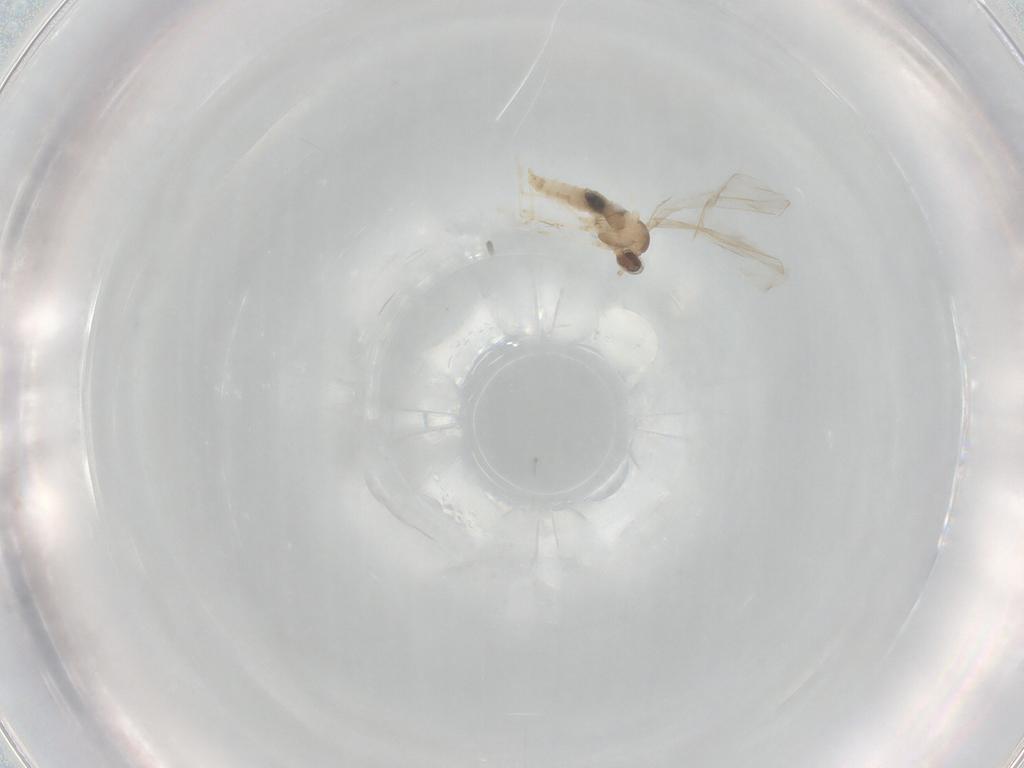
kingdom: Animalia
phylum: Arthropoda
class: Insecta
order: Diptera
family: Cecidomyiidae
